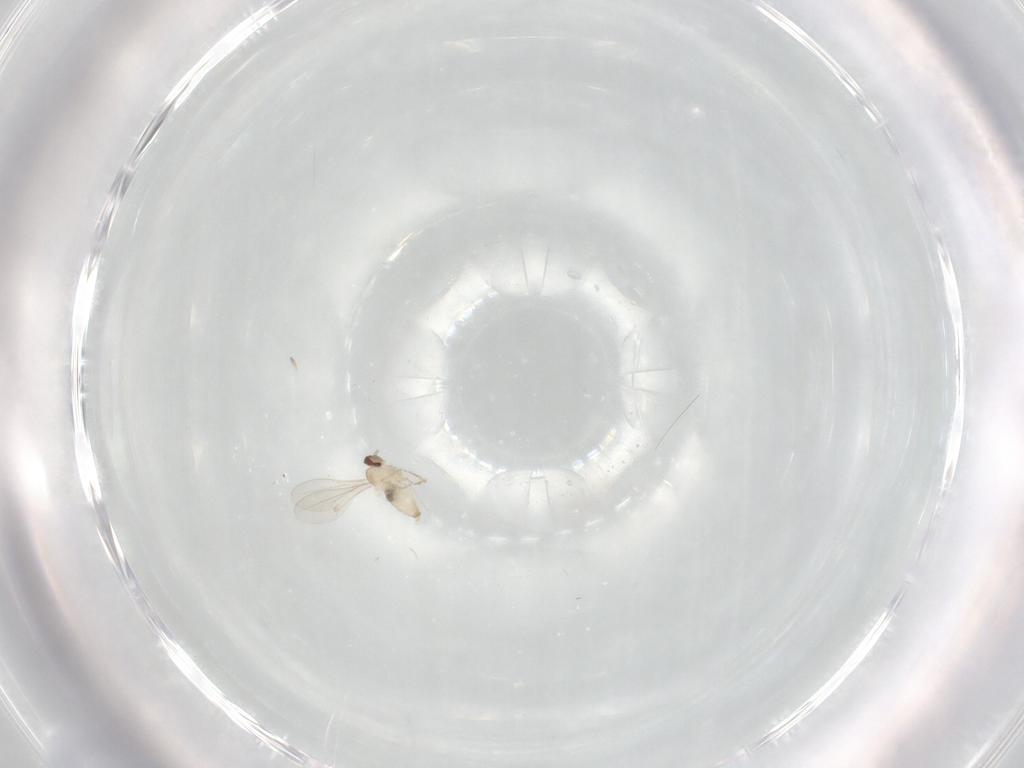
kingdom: Animalia
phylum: Arthropoda
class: Insecta
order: Diptera
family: Cecidomyiidae
